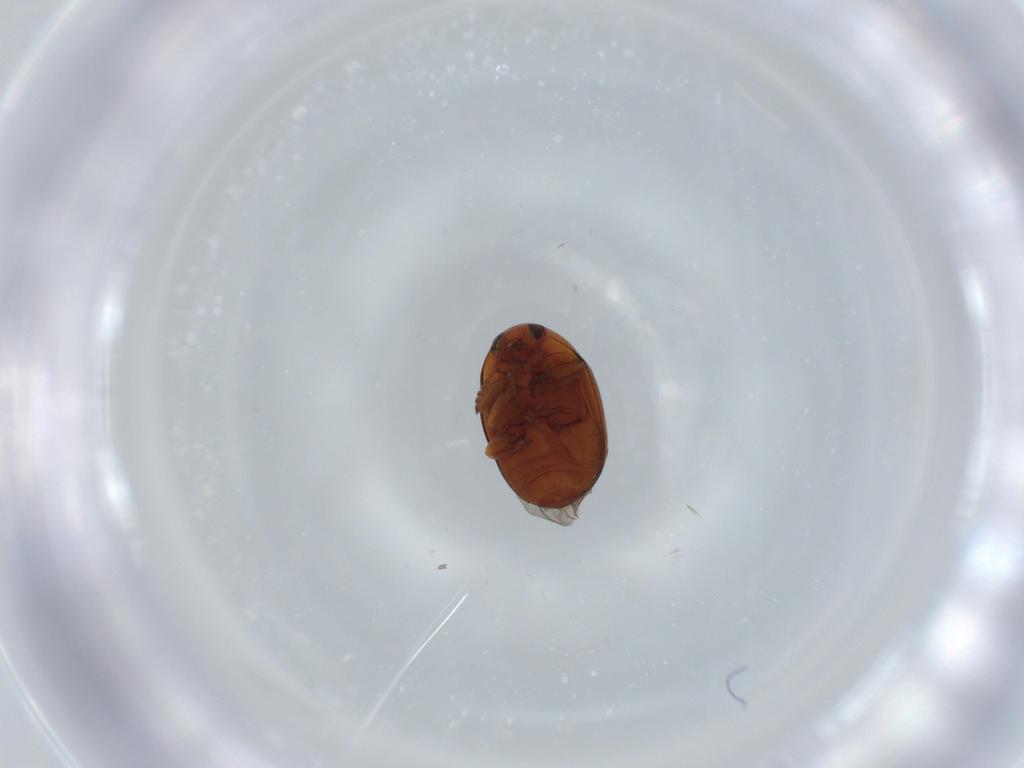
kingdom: Animalia
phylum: Arthropoda
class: Insecta
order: Coleoptera
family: Chrysomelidae
